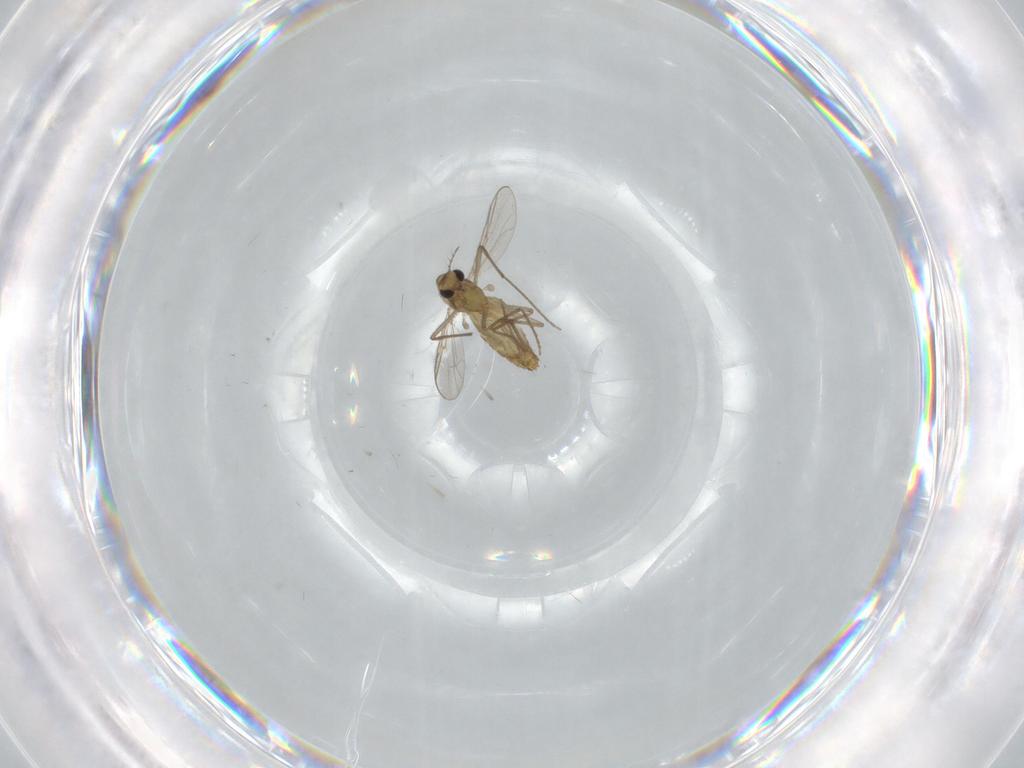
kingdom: Animalia
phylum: Arthropoda
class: Insecta
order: Diptera
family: Chironomidae
